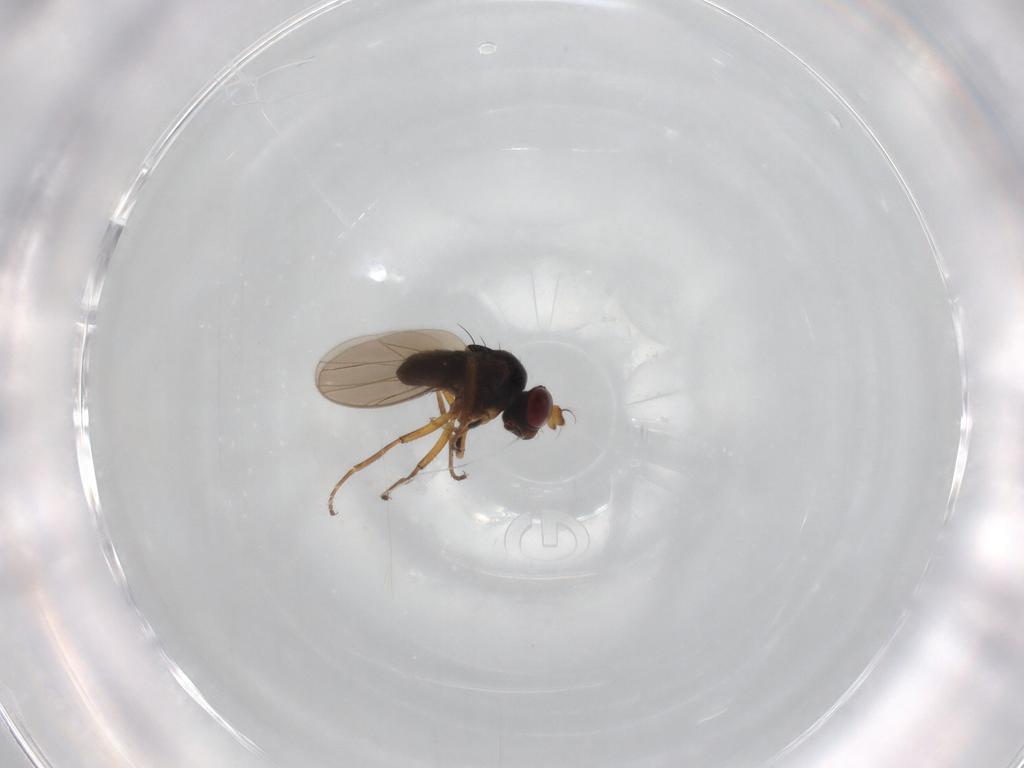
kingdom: Animalia
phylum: Arthropoda
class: Insecta
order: Diptera
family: Ephydridae
